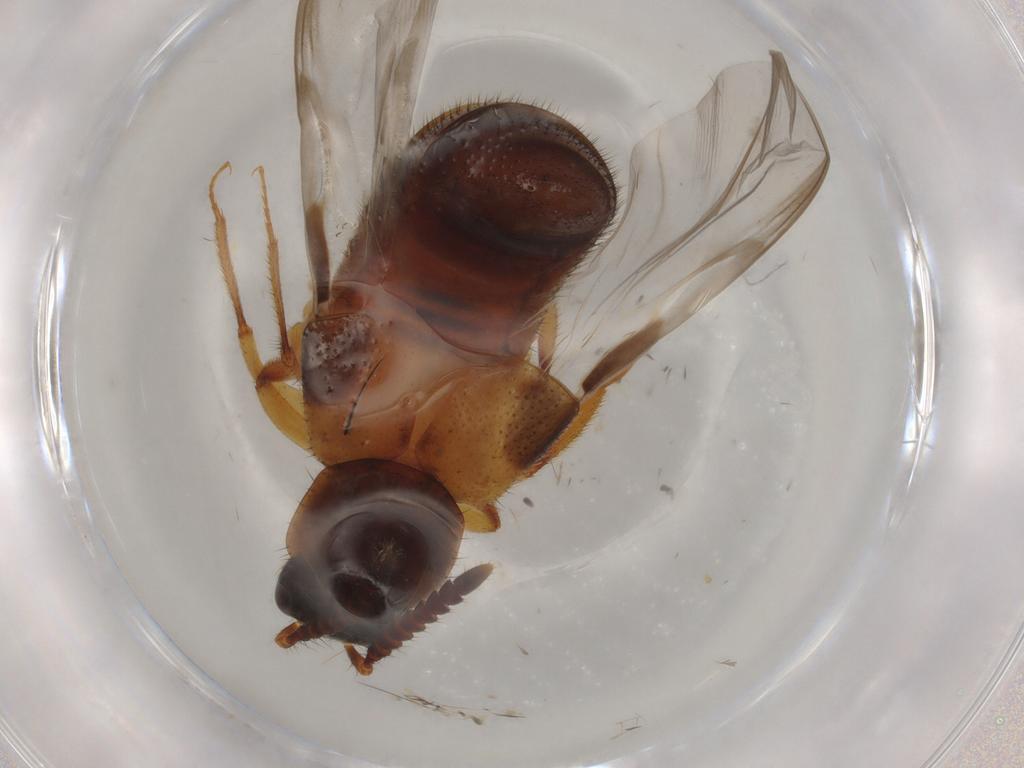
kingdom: Animalia
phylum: Arthropoda
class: Insecta
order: Coleoptera
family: Staphylinidae
